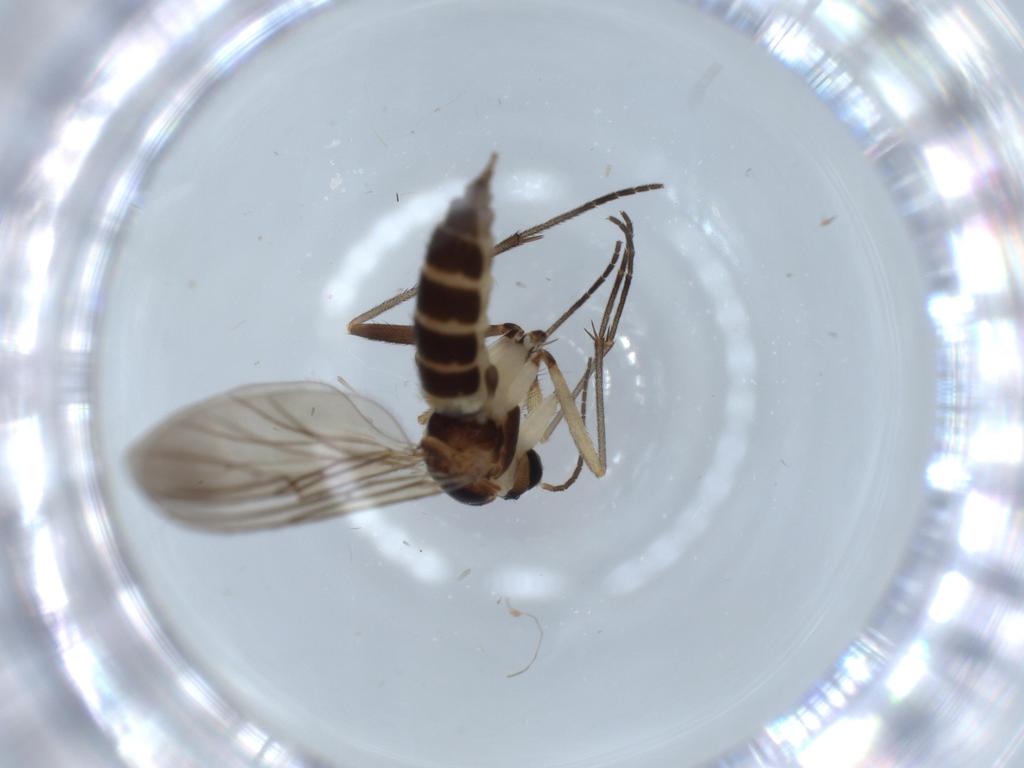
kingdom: Animalia
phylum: Arthropoda
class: Insecta
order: Diptera
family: Sciaridae
